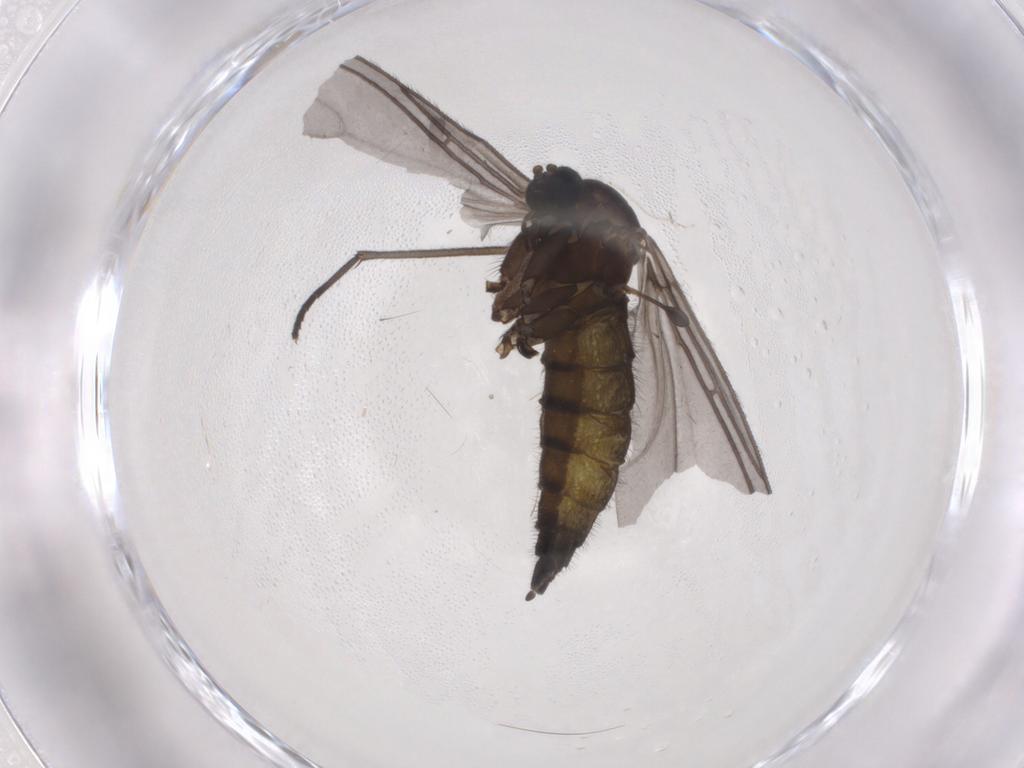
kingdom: Animalia
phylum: Arthropoda
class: Insecta
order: Diptera
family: Sciaridae
